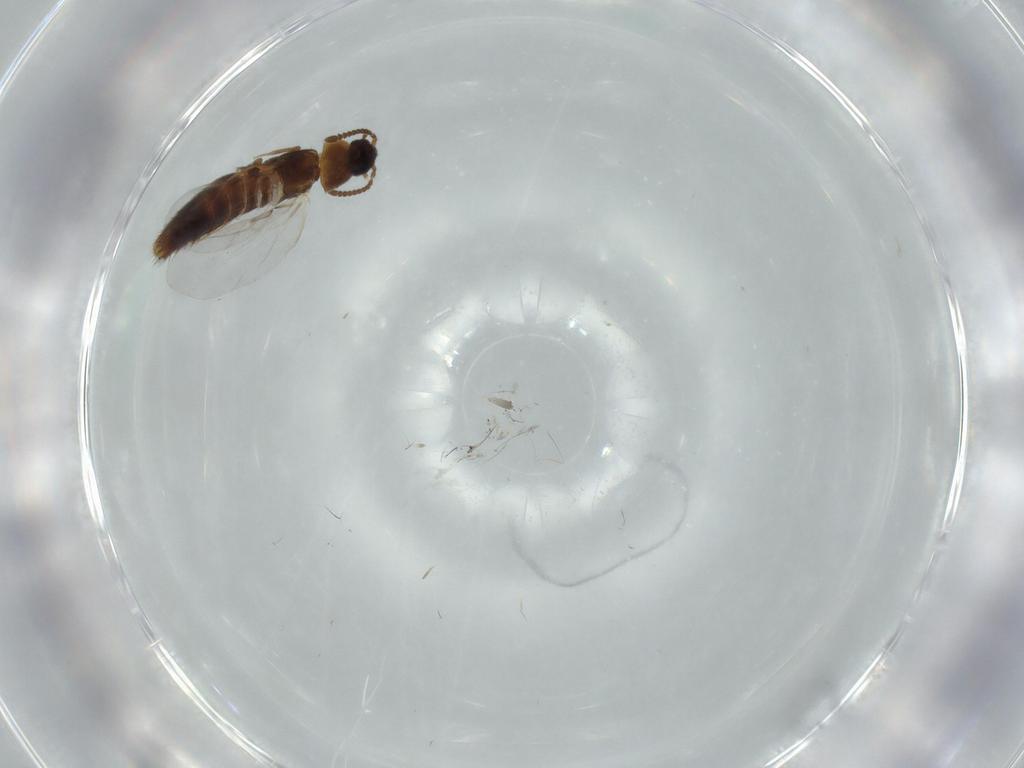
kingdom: Animalia
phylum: Arthropoda
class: Insecta
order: Coleoptera
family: Staphylinidae
